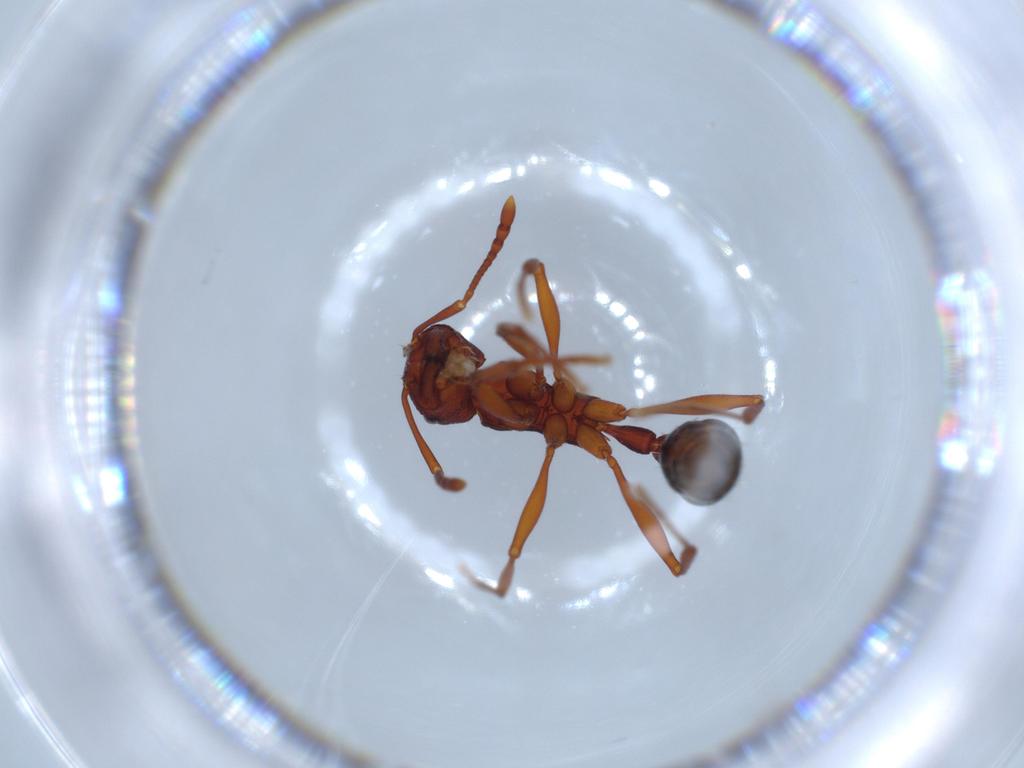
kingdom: Animalia
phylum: Arthropoda
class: Insecta
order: Hymenoptera
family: Formicidae
